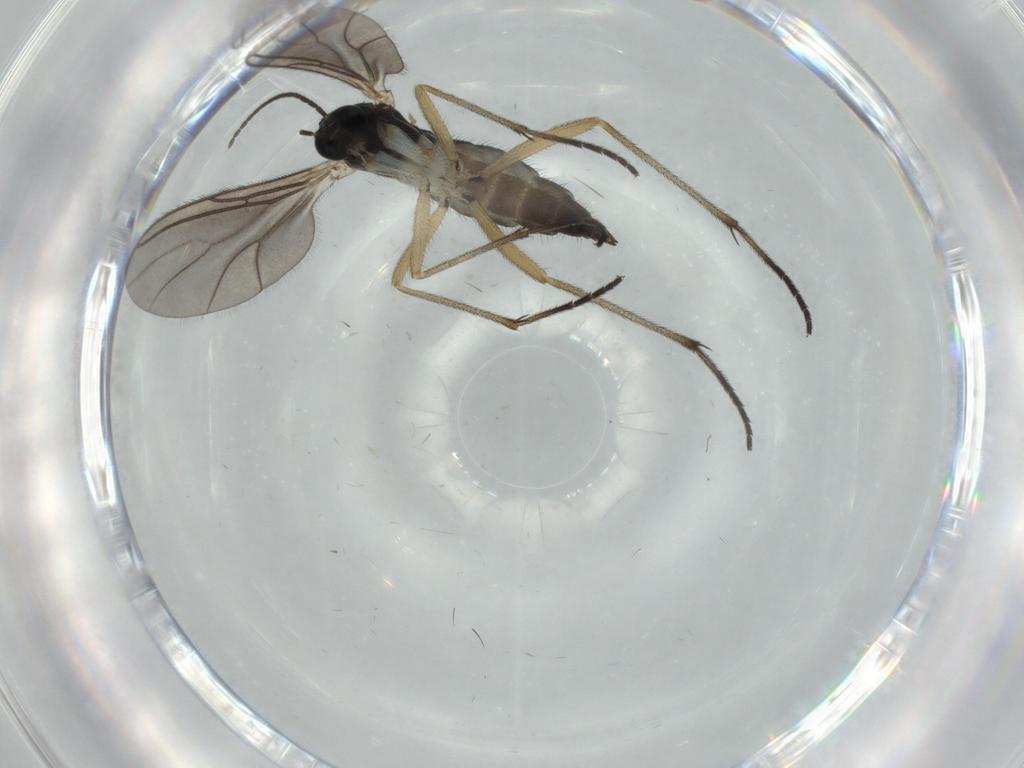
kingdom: Animalia
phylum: Arthropoda
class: Insecta
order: Diptera
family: Sciaridae
